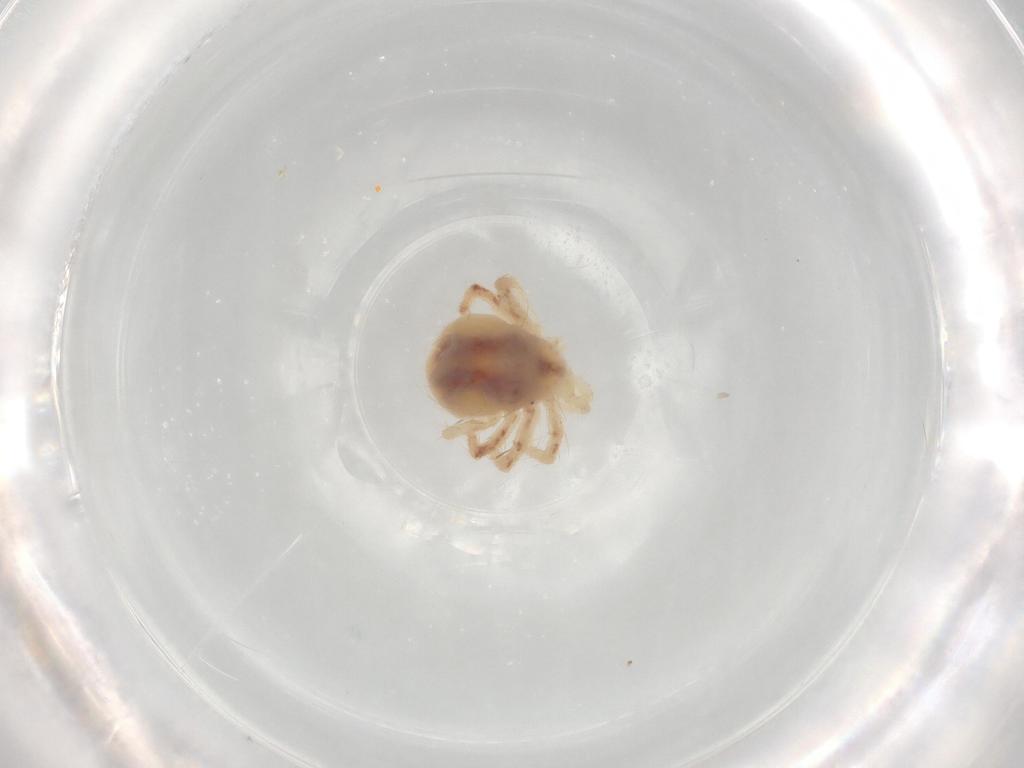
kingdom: Animalia
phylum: Arthropoda
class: Arachnida
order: Trombidiformes
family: Anystidae
